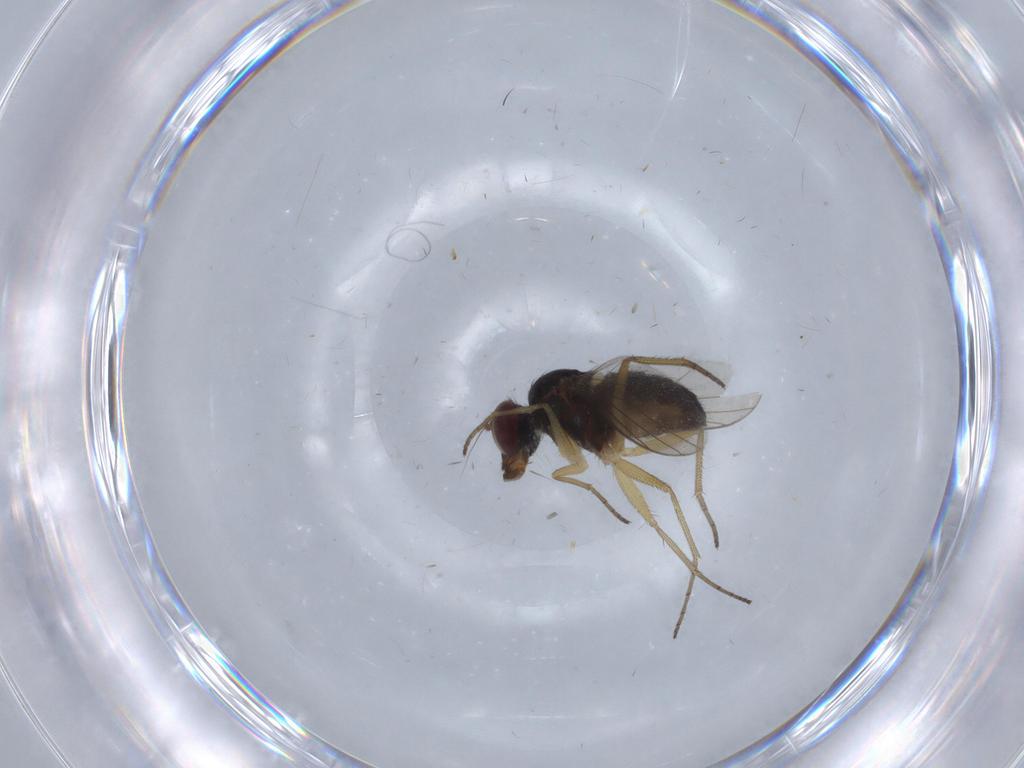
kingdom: Animalia
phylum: Arthropoda
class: Insecta
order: Diptera
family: Dolichopodidae
